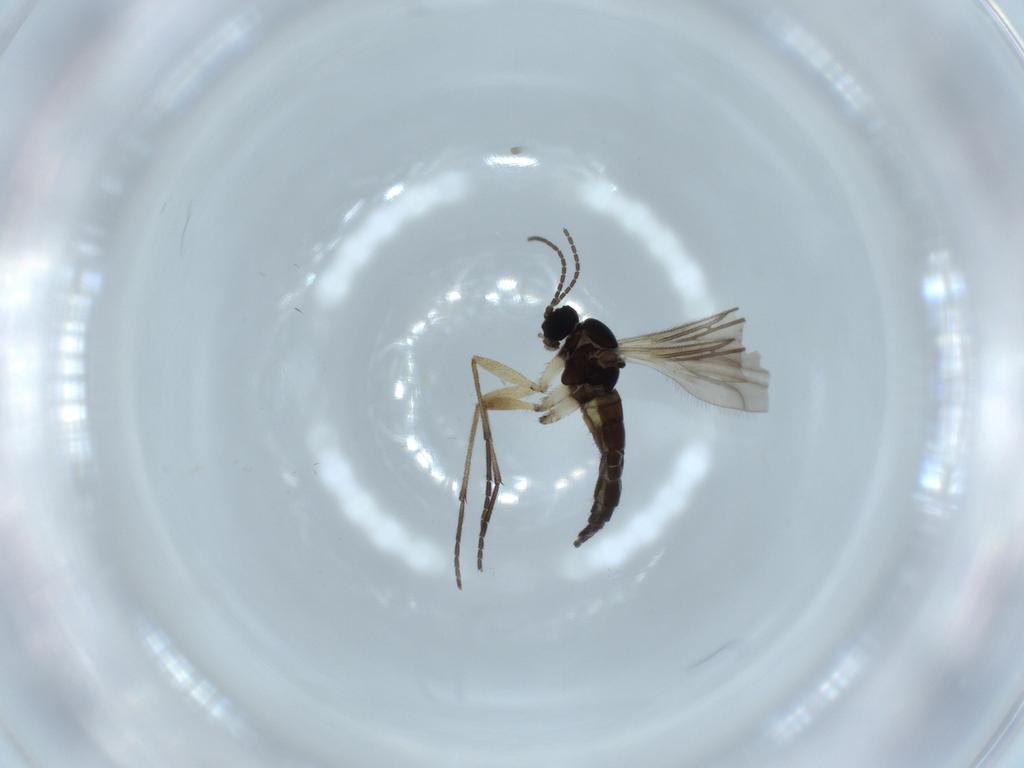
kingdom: Animalia
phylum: Arthropoda
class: Insecta
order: Diptera
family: Sciaridae
